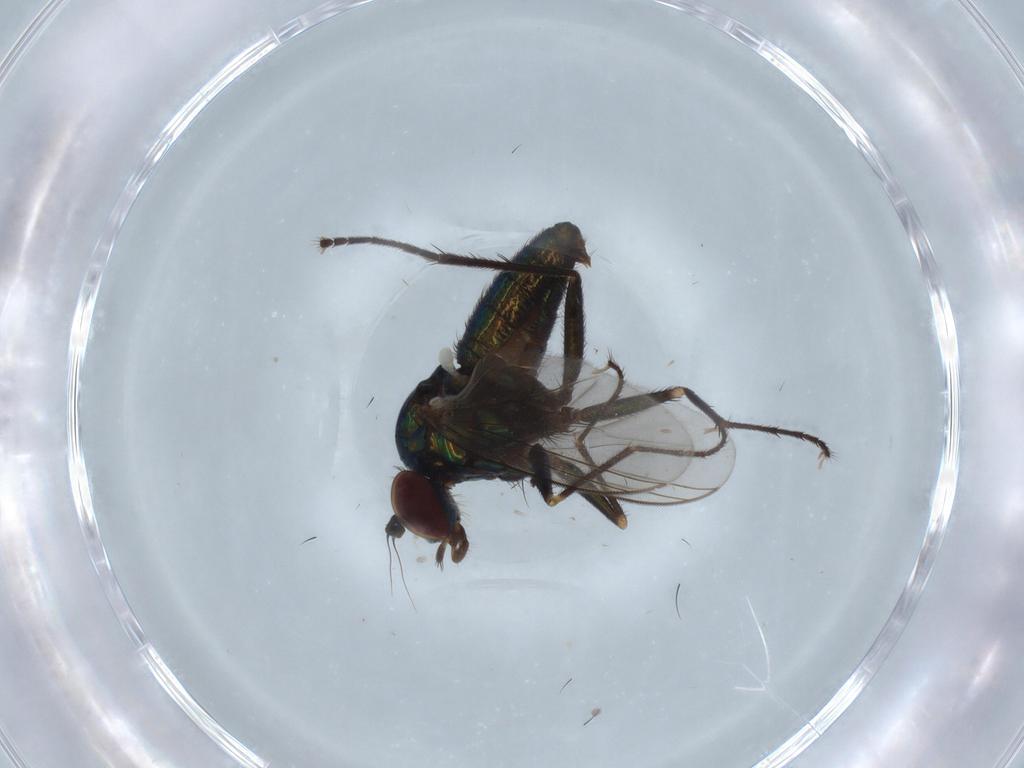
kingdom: Animalia
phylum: Arthropoda
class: Insecta
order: Diptera
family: Dolichopodidae
